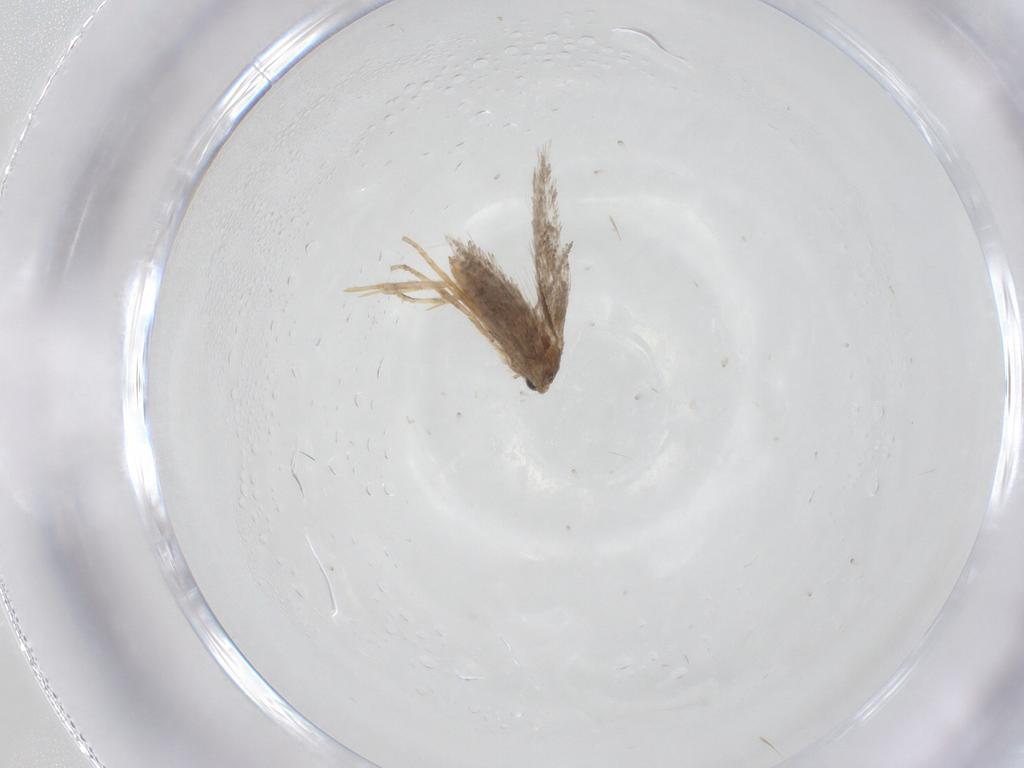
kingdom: Animalia
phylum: Arthropoda
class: Insecta
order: Lepidoptera
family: Nepticulidae
